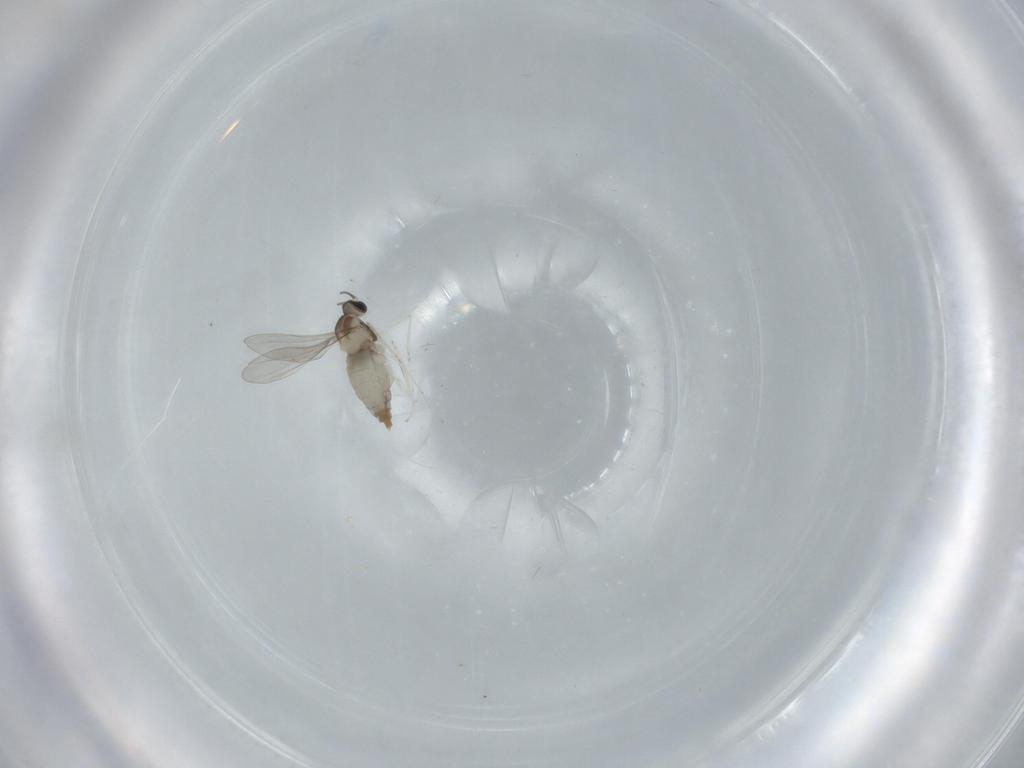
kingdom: Animalia
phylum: Arthropoda
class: Insecta
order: Diptera
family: Cecidomyiidae
